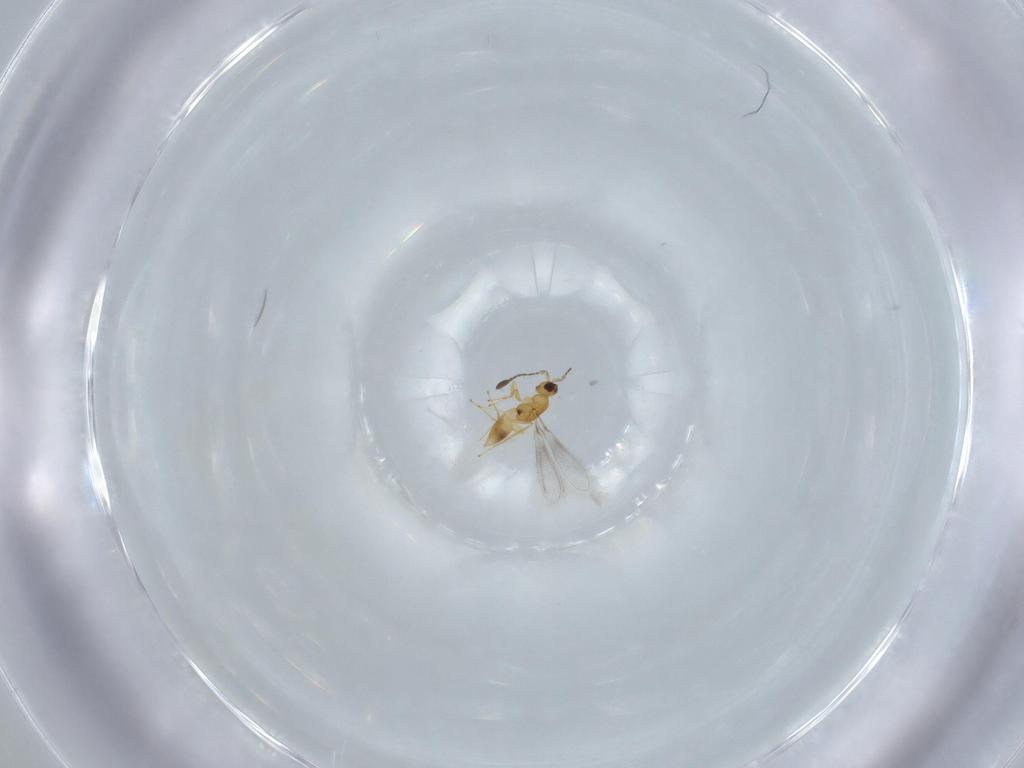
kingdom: Animalia
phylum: Arthropoda
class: Insecta
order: Hymenoptera
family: Mymaridae
